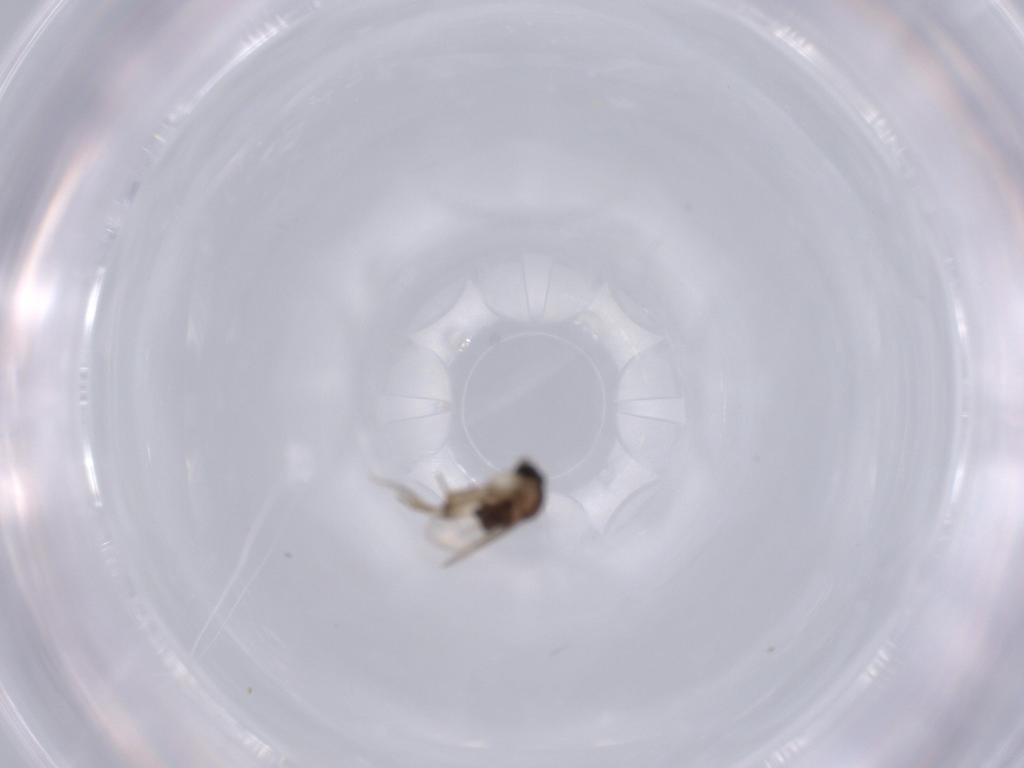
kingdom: Animalia
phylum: Arthropoda
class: Insecta
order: Diptera
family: Phoridae
